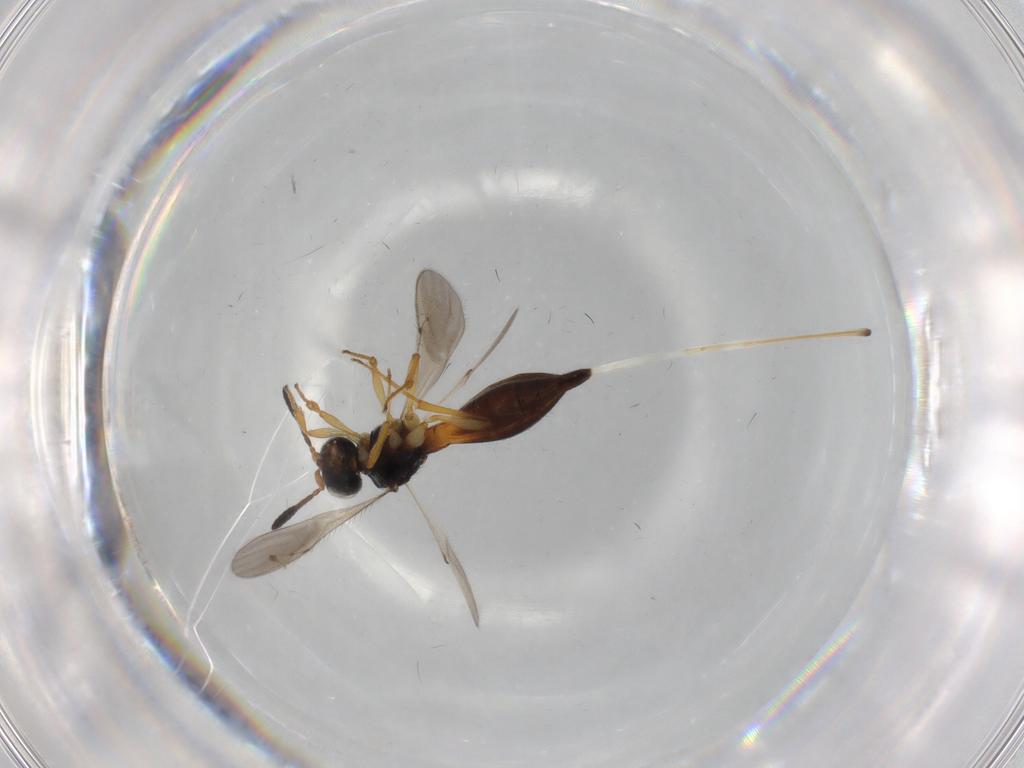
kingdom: Animalia
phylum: Arthropoda
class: Insecta
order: Hymenoptera
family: Scelionidae
